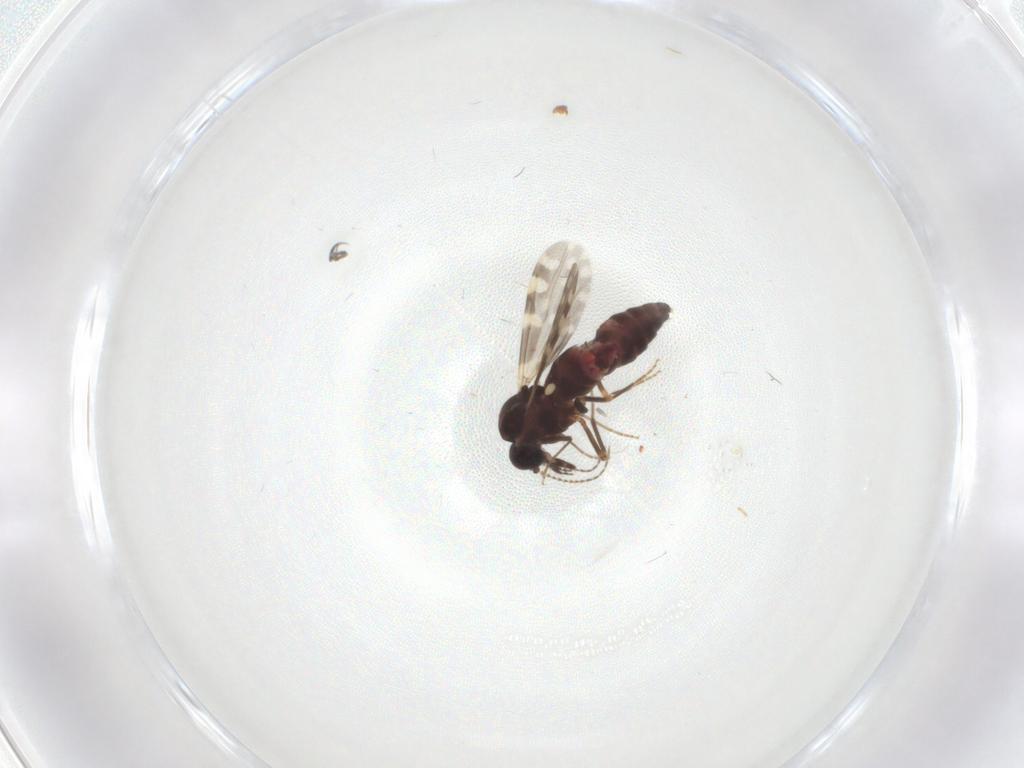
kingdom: Animalia
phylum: Arthropoda
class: Insecta
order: Diptera
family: Ceratopogonidae
